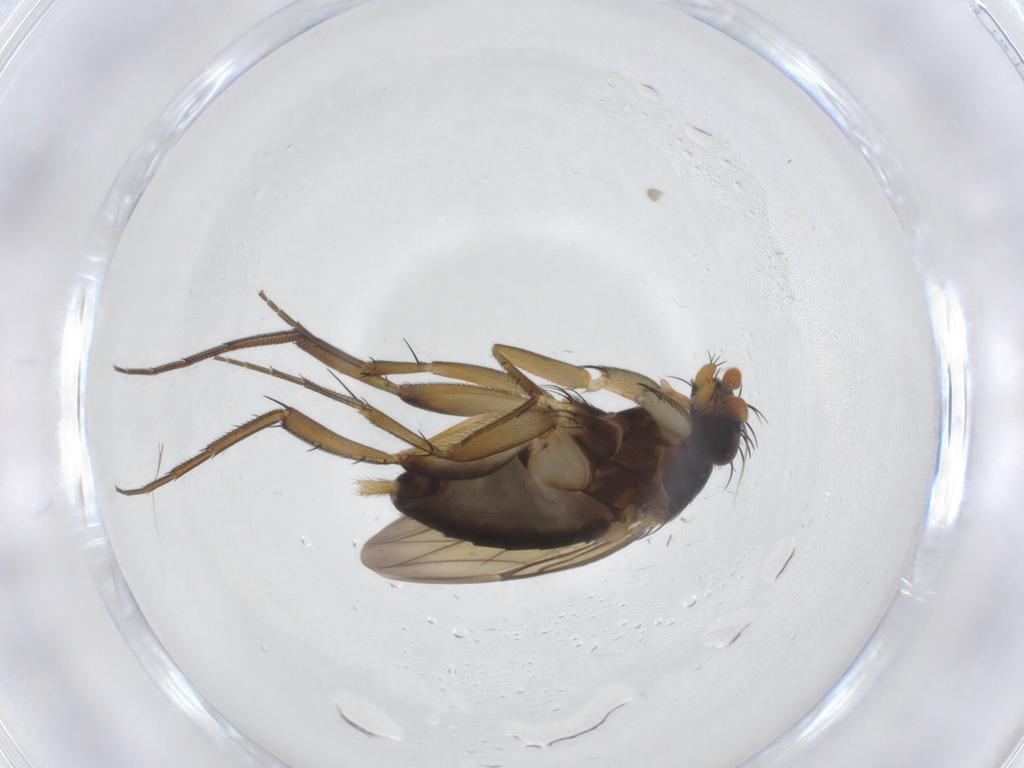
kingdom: Animalia
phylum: Arthropoda
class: Insecta
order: Diptera
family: Phoridae
